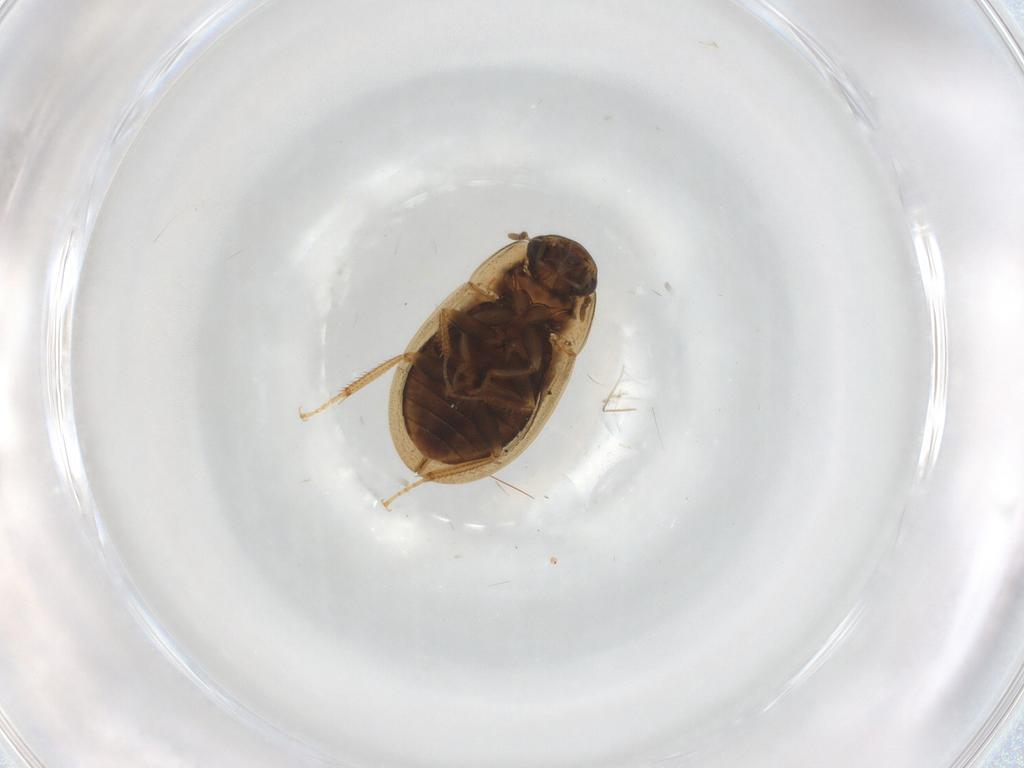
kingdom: Animalia
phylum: Arthropoda
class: Insecta
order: Coleoptera
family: Hydrophilidae
